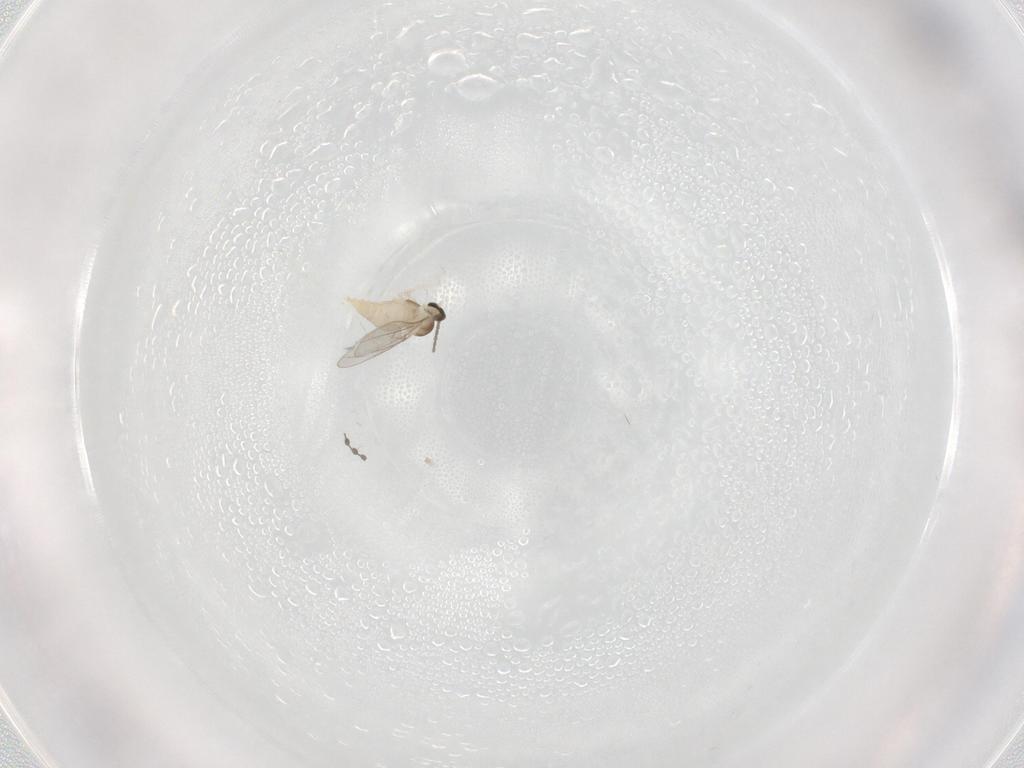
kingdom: Animalia
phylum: Arthropoda
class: Insecta
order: Diptera
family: Cecidomyiidae
